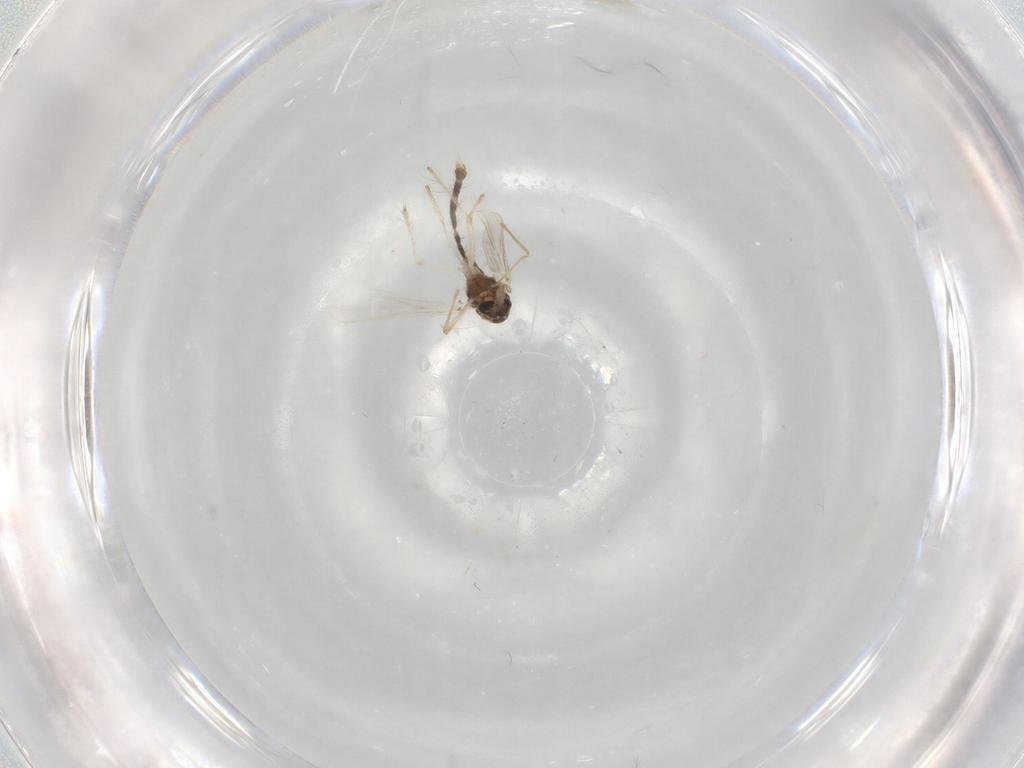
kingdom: Animalia
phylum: Arthropoda
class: Insecta
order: Diptera
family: Chironomidae
